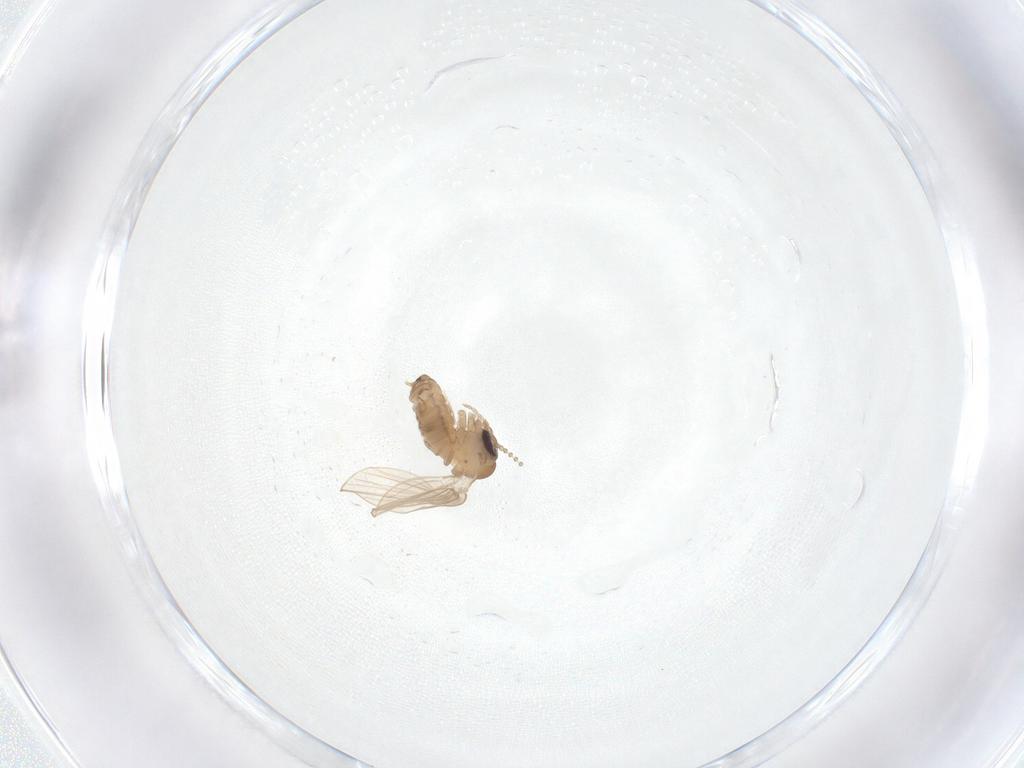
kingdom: Animalia
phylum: Arthropoda
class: Insecta
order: Diptera
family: Psychodidae
